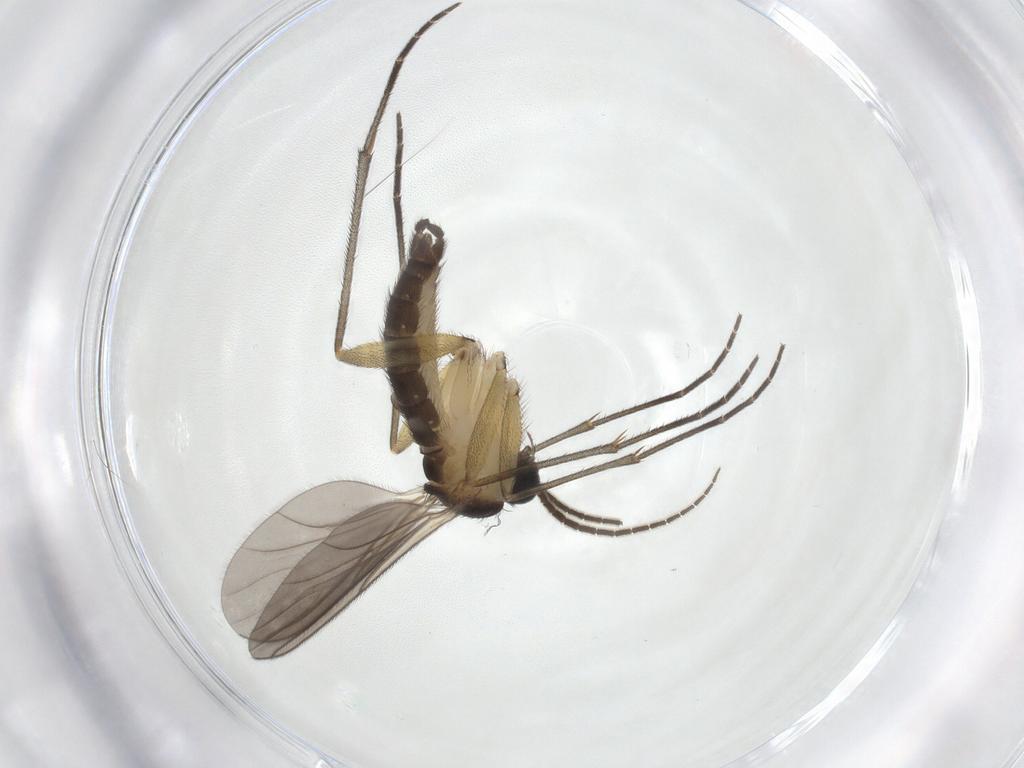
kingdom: Animalia
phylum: Arthropoda
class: Insecta
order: Diptera
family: Sciaridae
